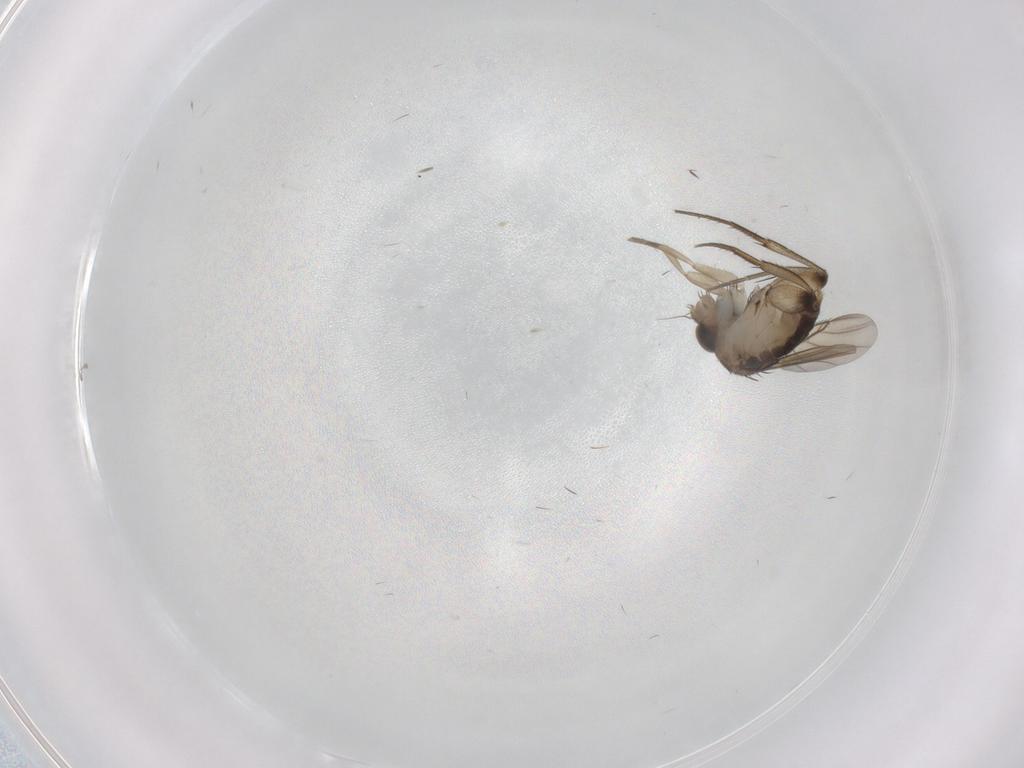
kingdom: Animalia
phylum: Arthropoda
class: Insecta
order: Diptera
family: Phoridae
